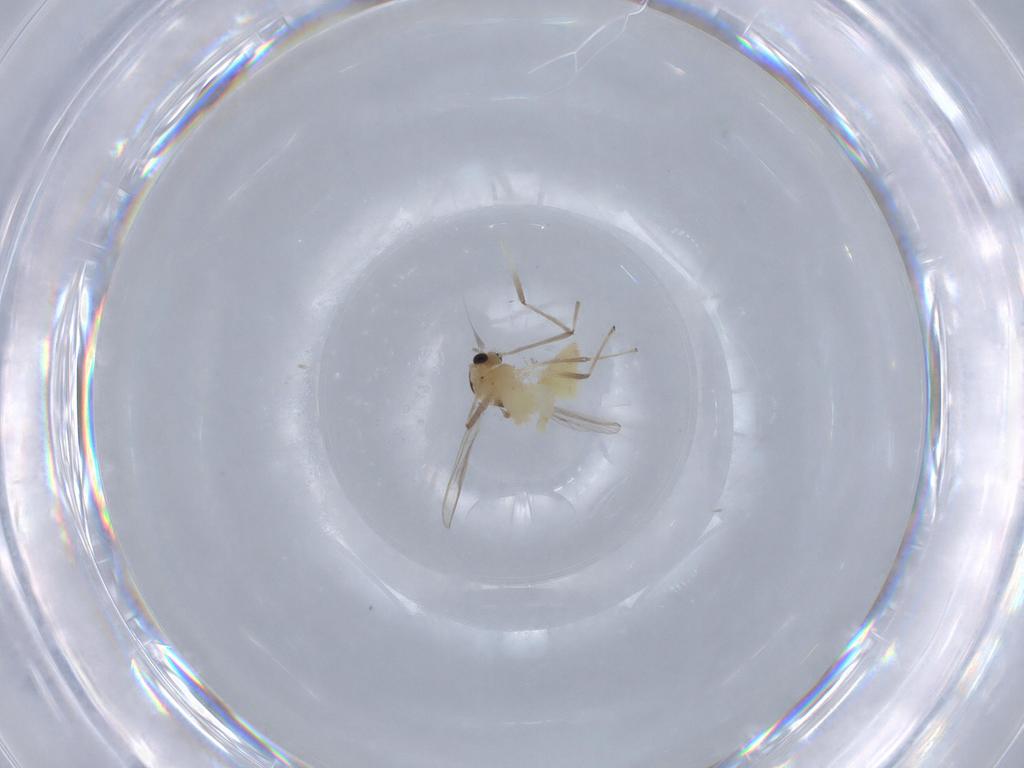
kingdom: Animalia
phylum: Arthropoda
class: Insecta
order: Diptera
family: Chironomidae
